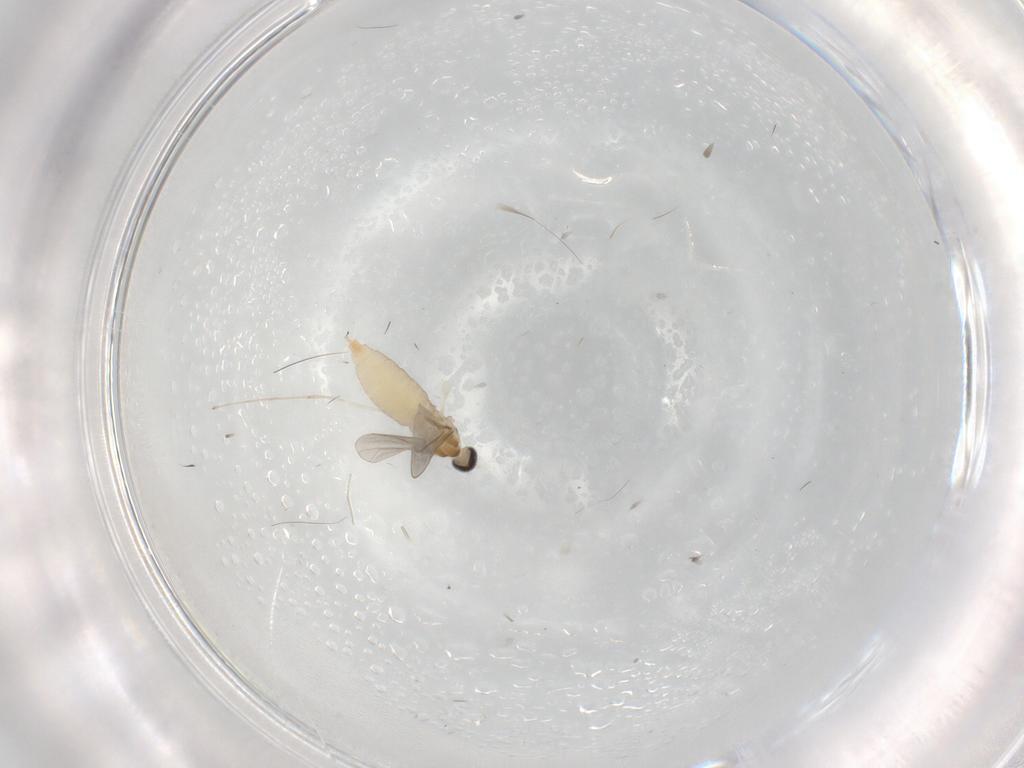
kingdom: Animalia
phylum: Arthropoda
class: Insecta
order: Diptera
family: Cecidomyiidae
